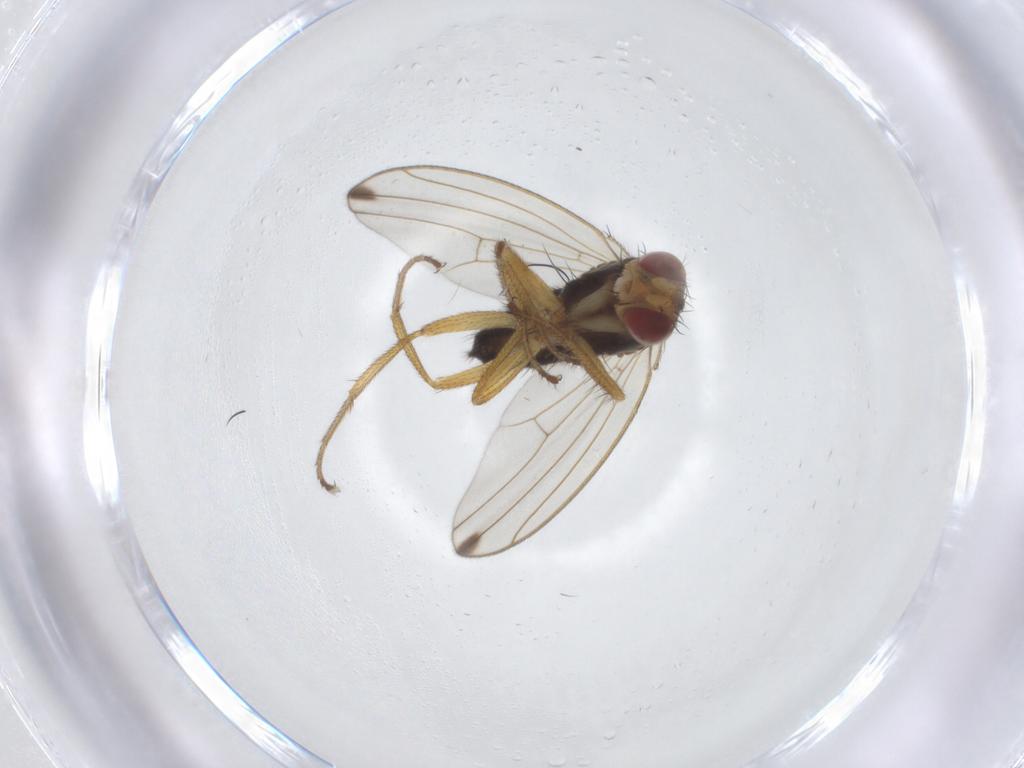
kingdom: Animalia
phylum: Arthropoda
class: Insecta
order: Diptera
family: Drosophilidae
